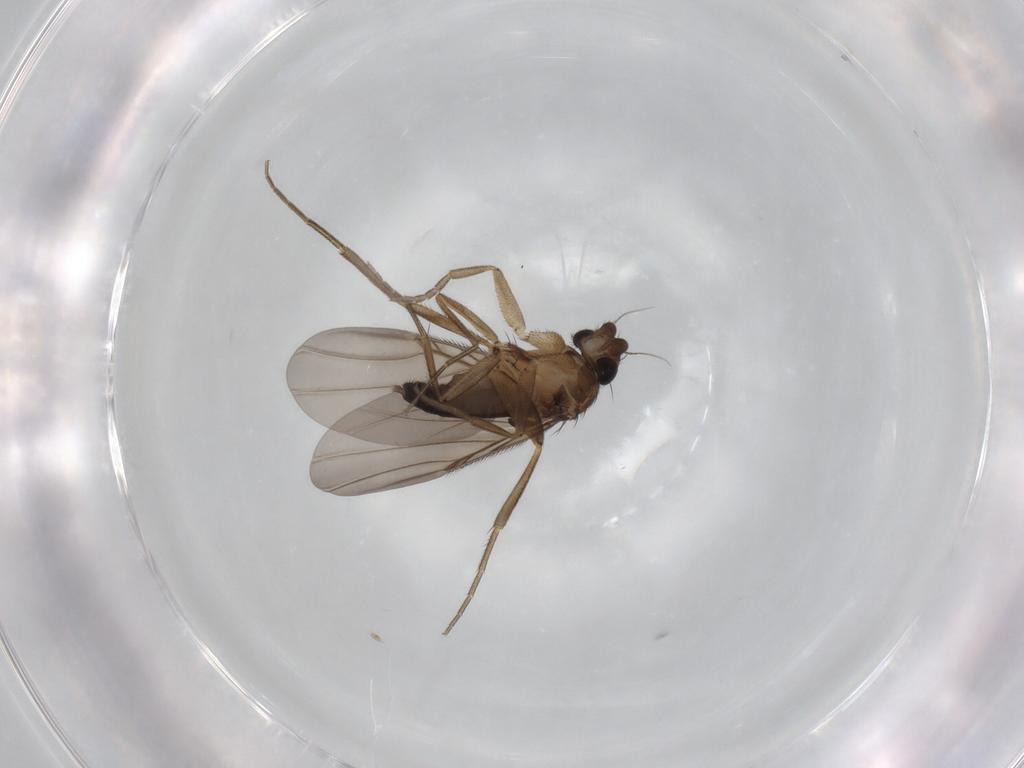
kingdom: Animalia
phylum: Arthropoda
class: Insecta
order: Diptera
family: Phoridae
